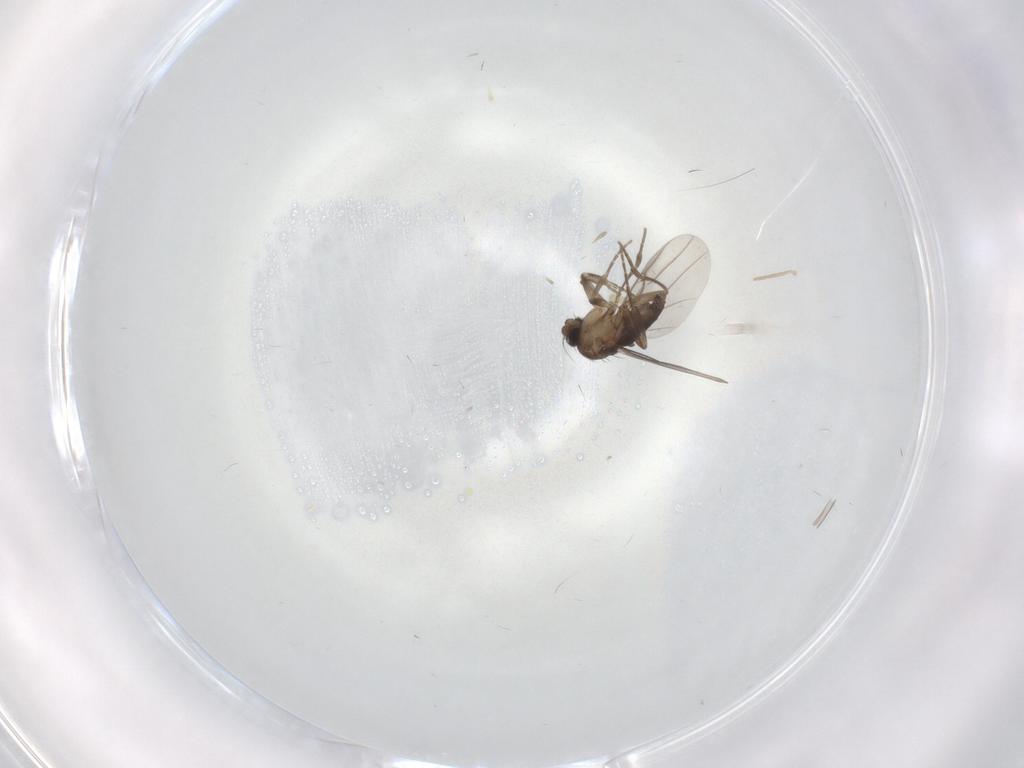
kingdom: Animalia
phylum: Arthropoda
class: Insecta
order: Diptera
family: Cecidomyiidae
